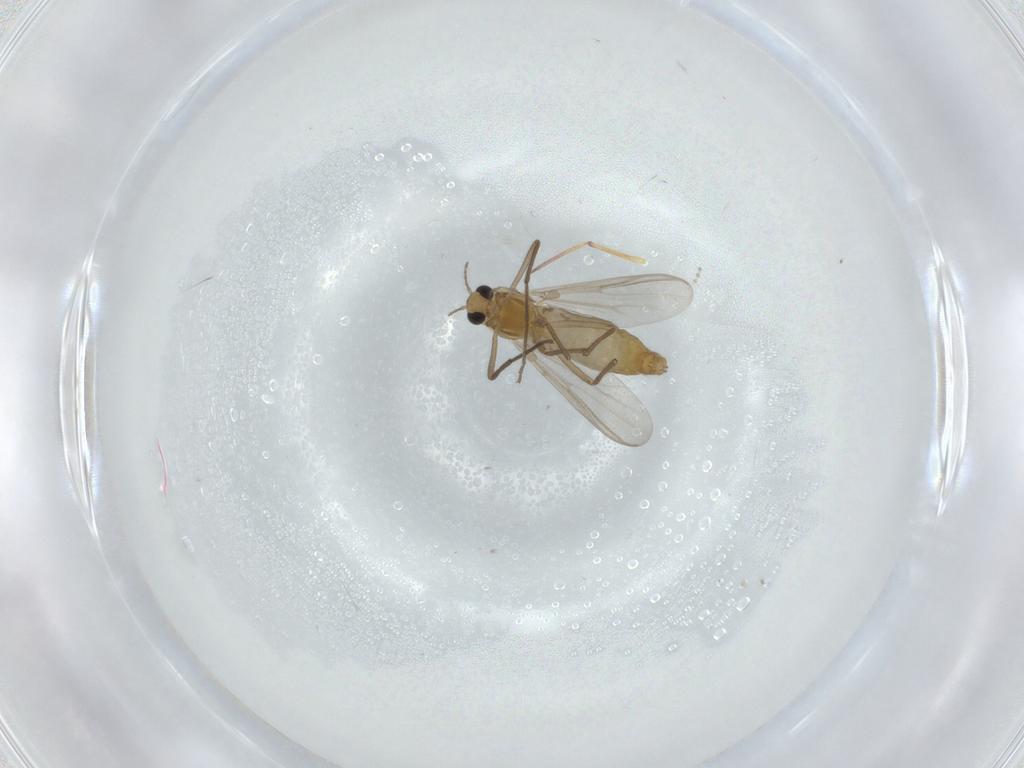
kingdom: Animalia
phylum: Arthropoda
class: Insecta
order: Diptera
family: Chironomidae
